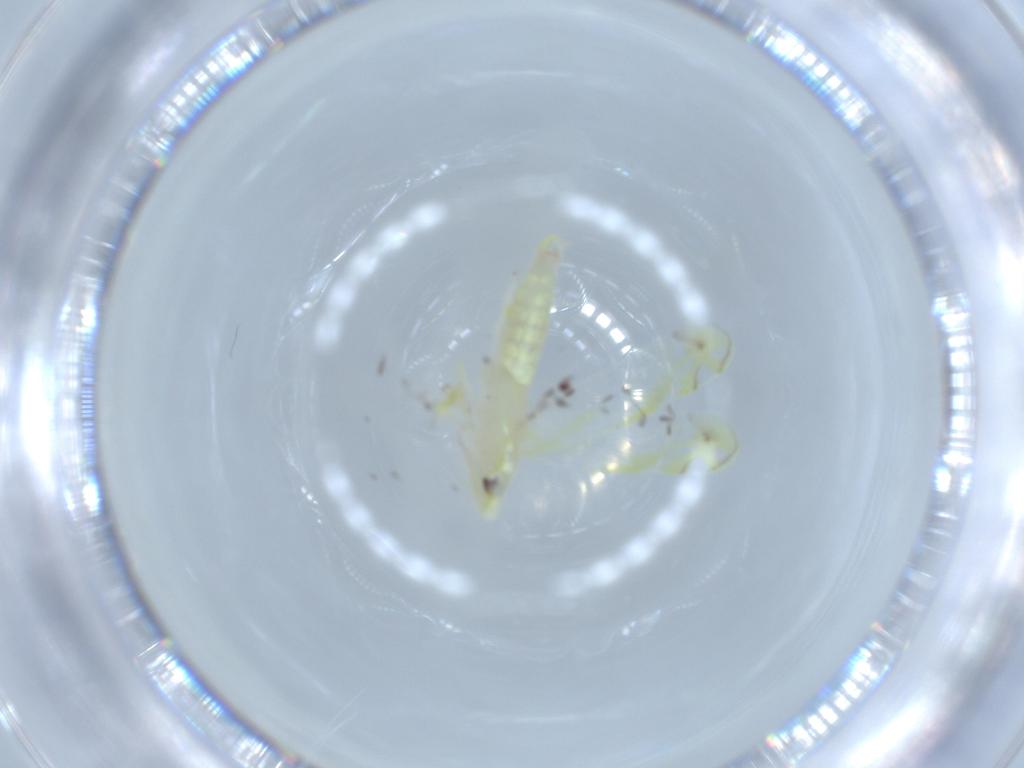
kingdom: Animalia
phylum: Arthropoda
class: Insecta
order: Hemiptera
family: Cicadellidae
